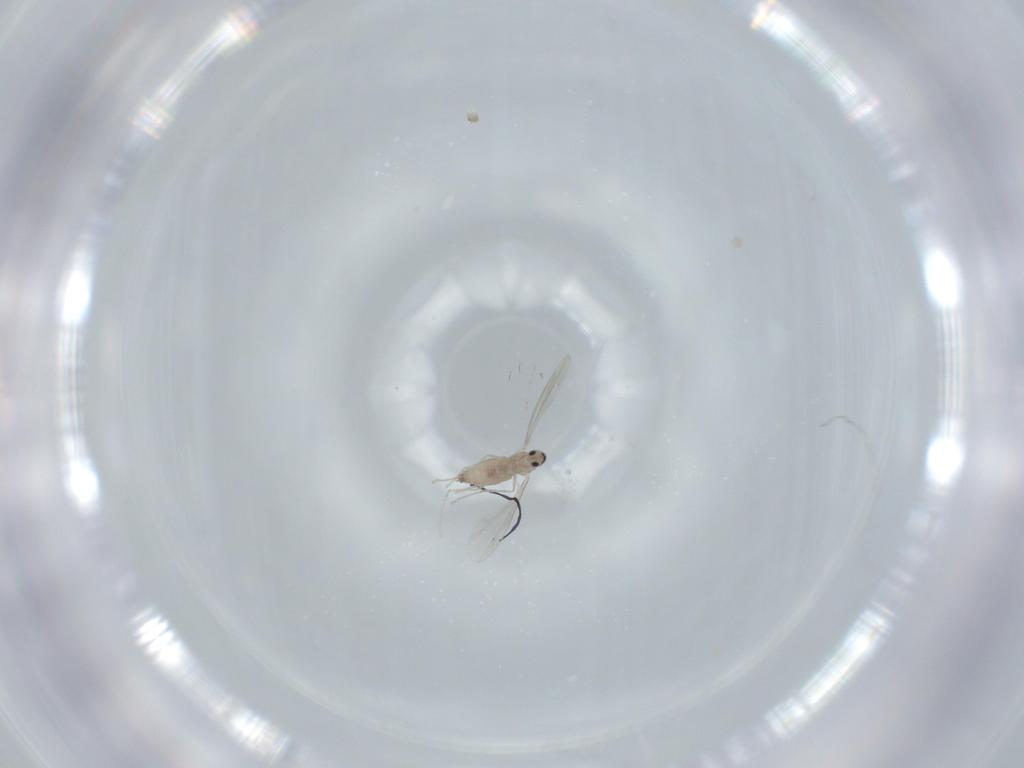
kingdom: Animalia
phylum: Arthropoda
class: Insecta
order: Diptera
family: Cecidomyiidae
